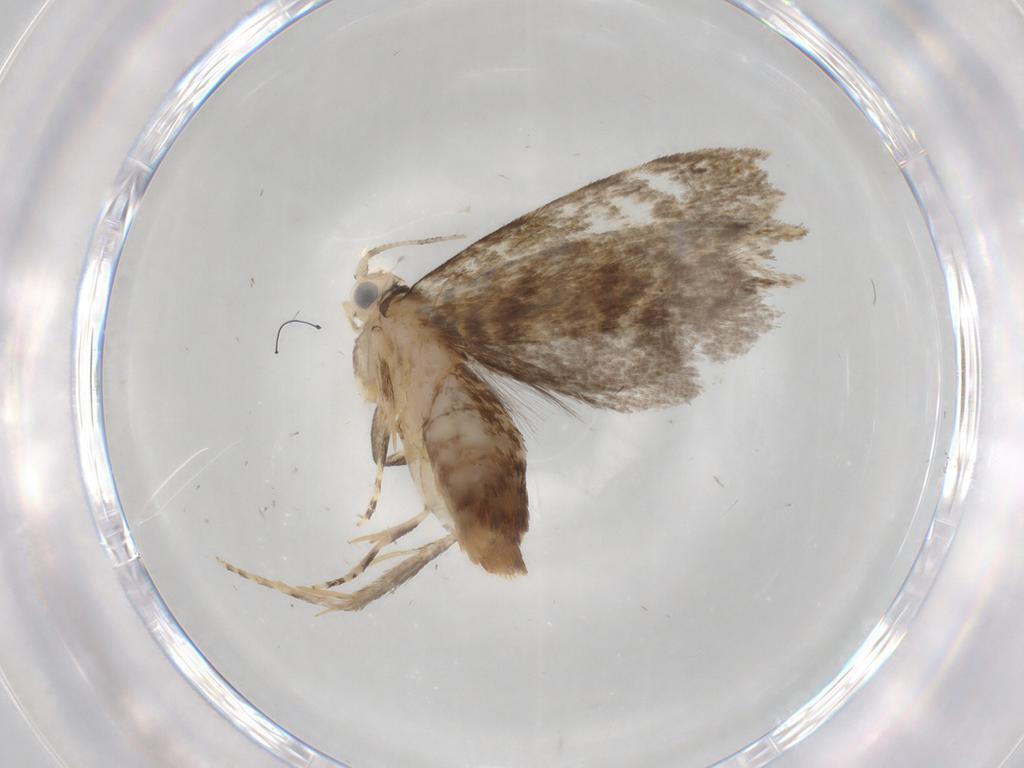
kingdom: Animalia
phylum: Arthropoda
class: Insecta
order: Lepidoptera
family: Tineidae
